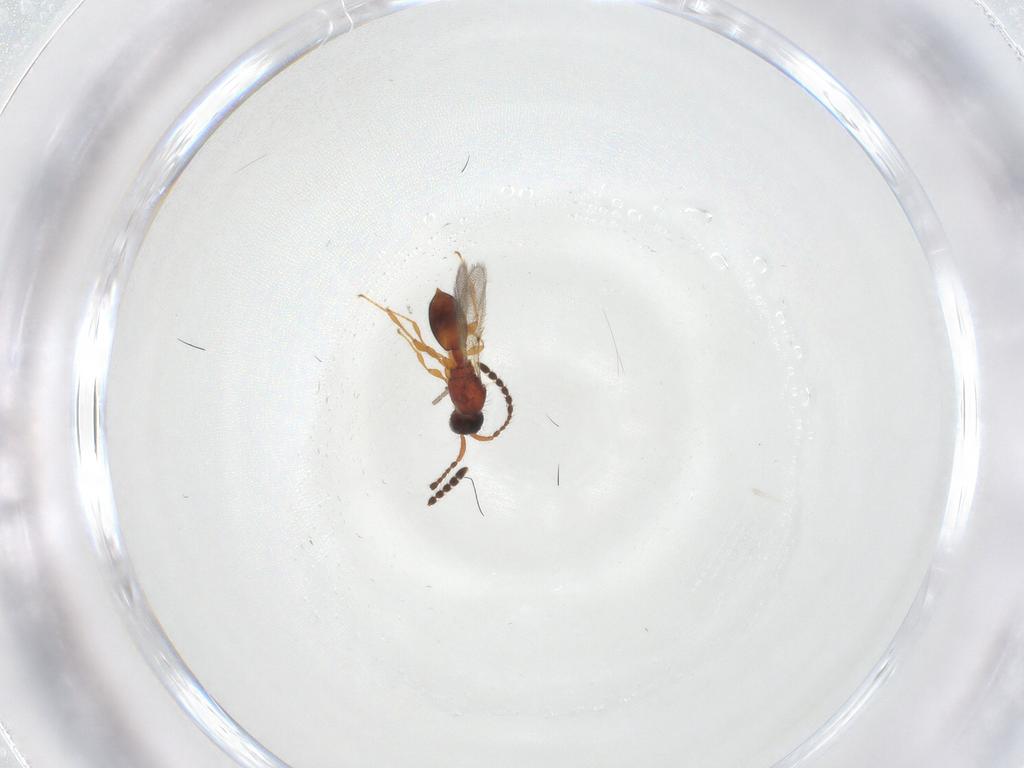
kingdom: Animalia
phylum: Arthropoda
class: Insecta
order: Hymenoptera
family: Diapriidae
